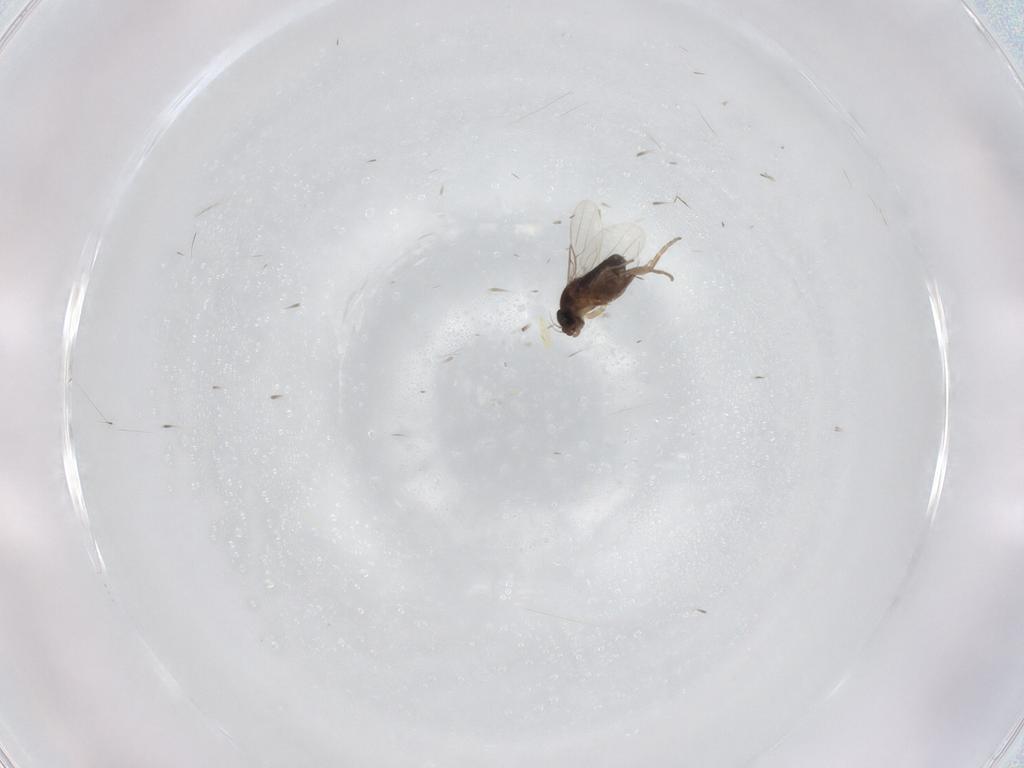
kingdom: Animalia
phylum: Arthropoda
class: Insecta
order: Diptera
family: Phoridae
